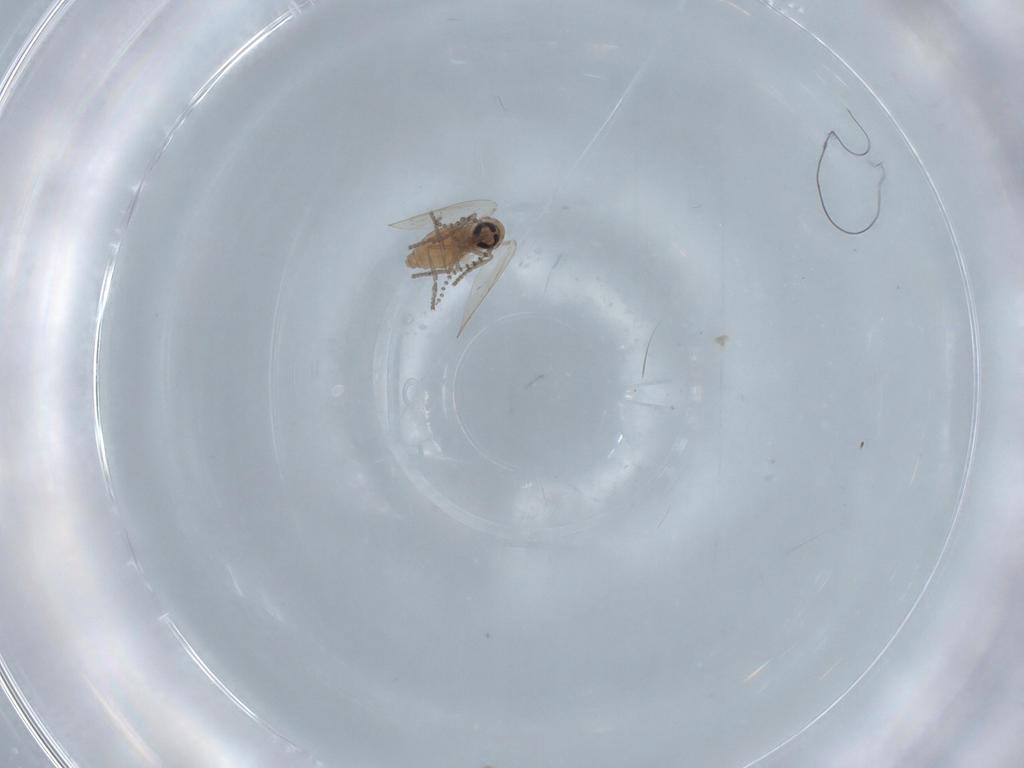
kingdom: Animalia
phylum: Arthropoda
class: Insecta
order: Diptera
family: Psychodidae
